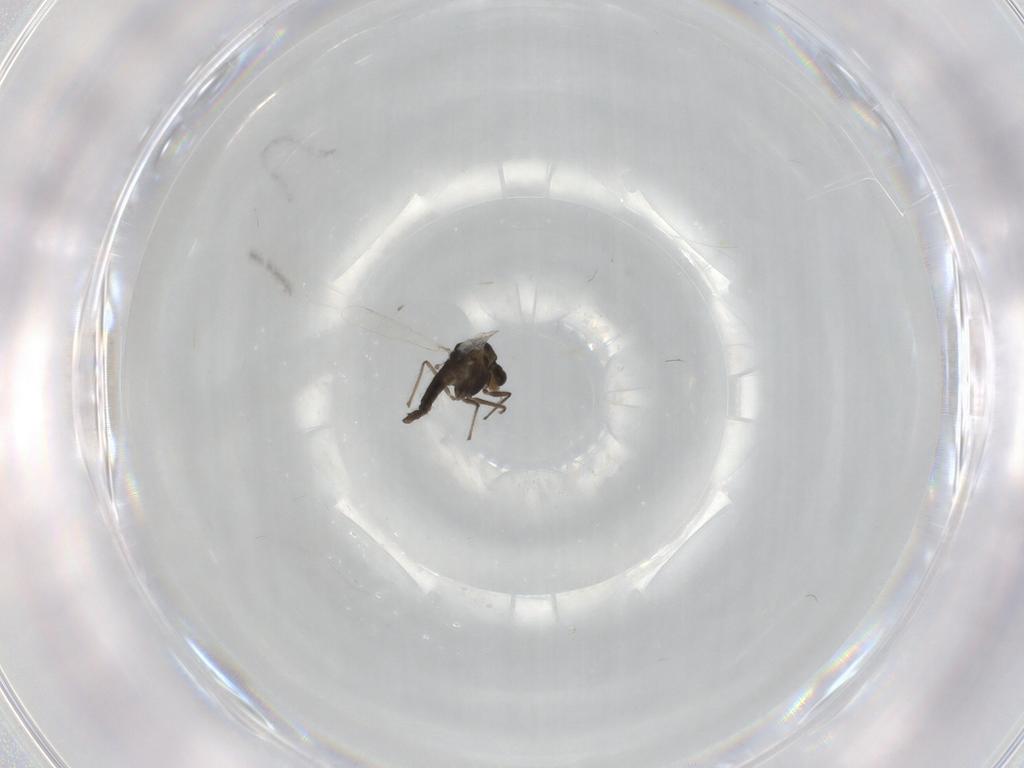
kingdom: Animalia
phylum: Arthropoda
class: Insecta
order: Diptera
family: Chironomidae
